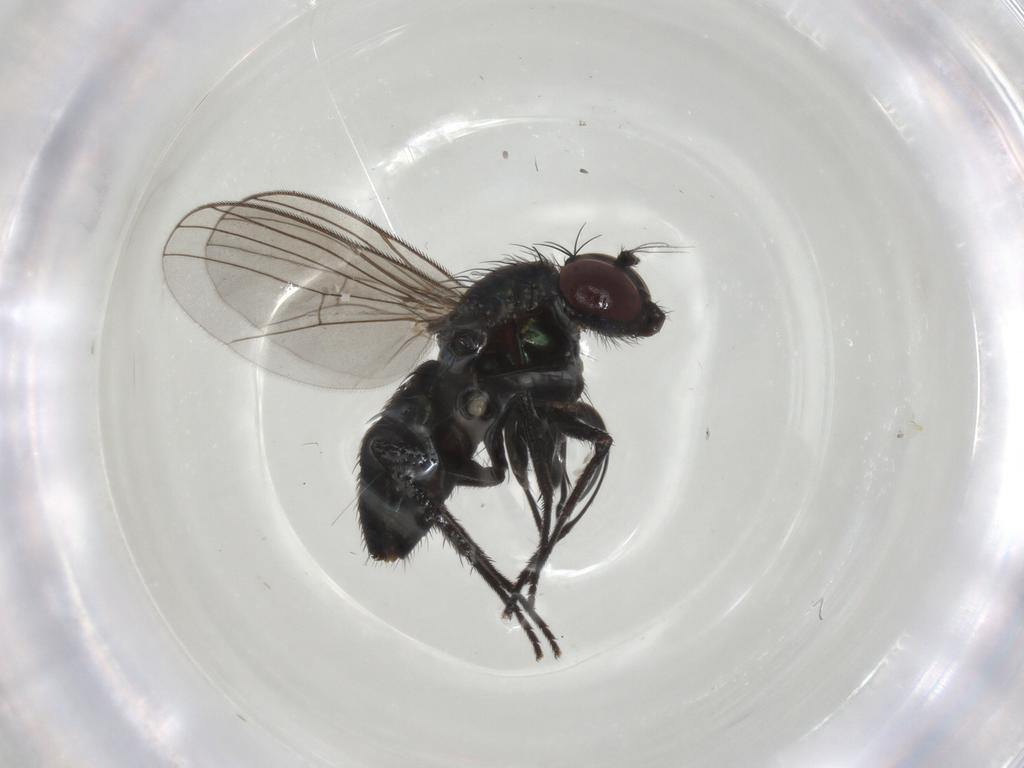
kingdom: Animalia
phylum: Arthropoda
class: Insecta
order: Diptera
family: Dolichopodidae
